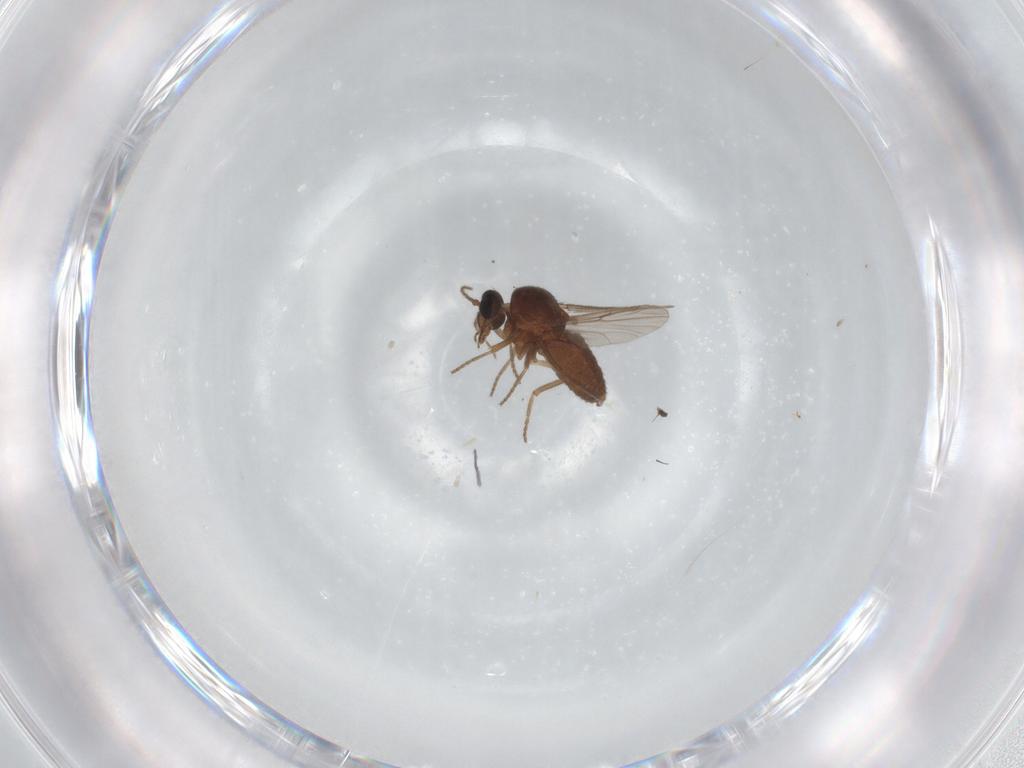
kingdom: Animalia
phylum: Arthropoda
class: Insecta
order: Diptera
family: Ceratopogonidae
